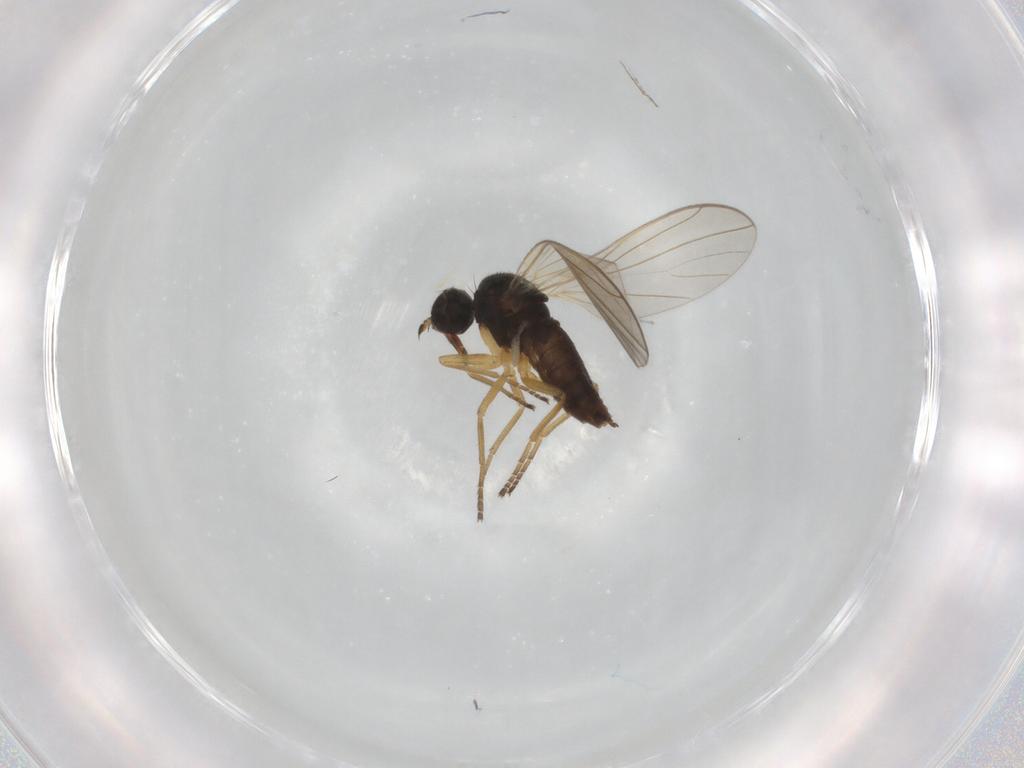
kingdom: Animalia
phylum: Arthropoda
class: Insecta
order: Diptera
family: Hybotidae
